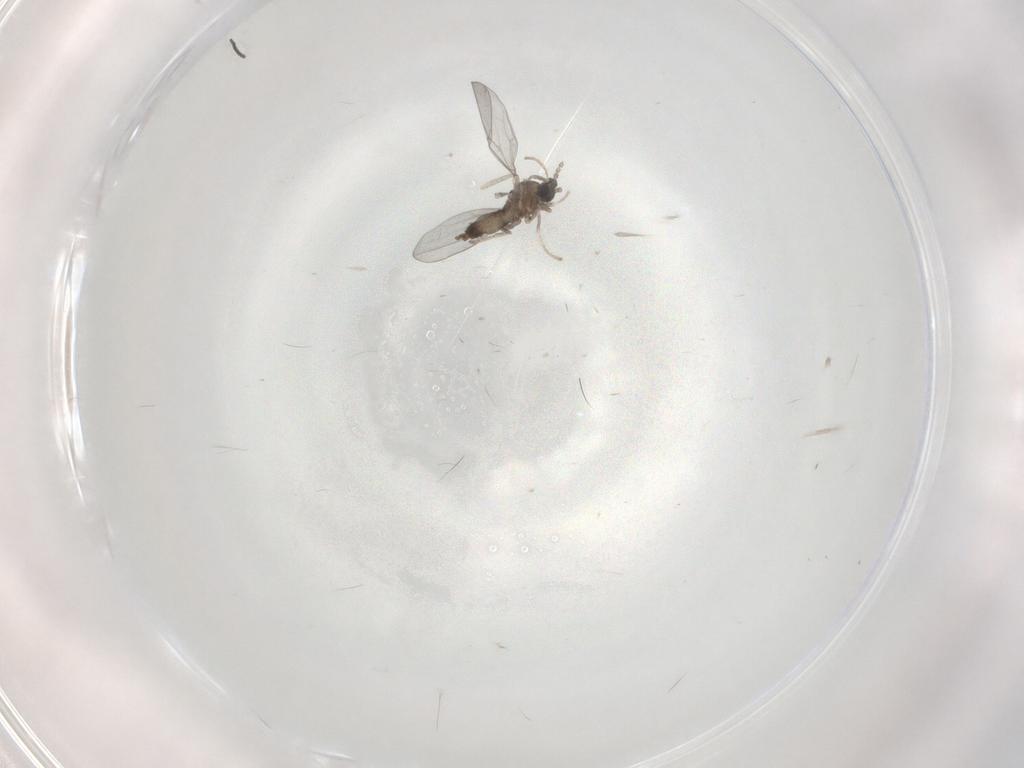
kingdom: Animalia
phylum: Arthropoda
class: Insecta
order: Diptera
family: Cecidomyiidae
